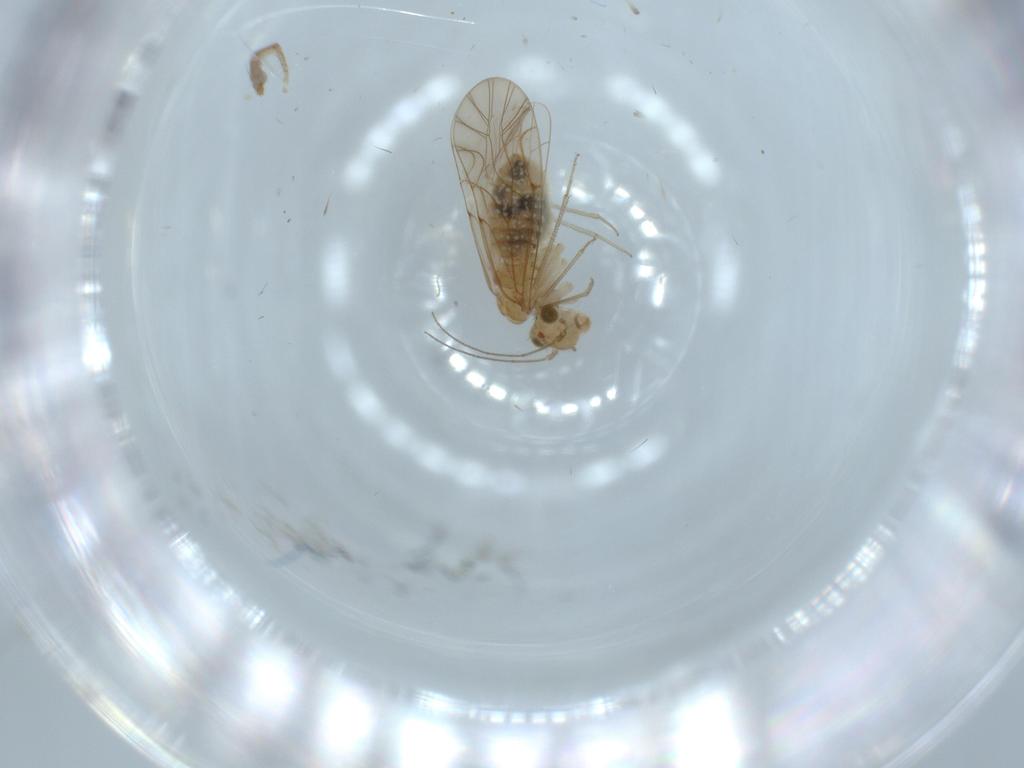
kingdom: Animalia
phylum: Arthropoda
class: Insecta
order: Psocodea
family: Lachesillidae
